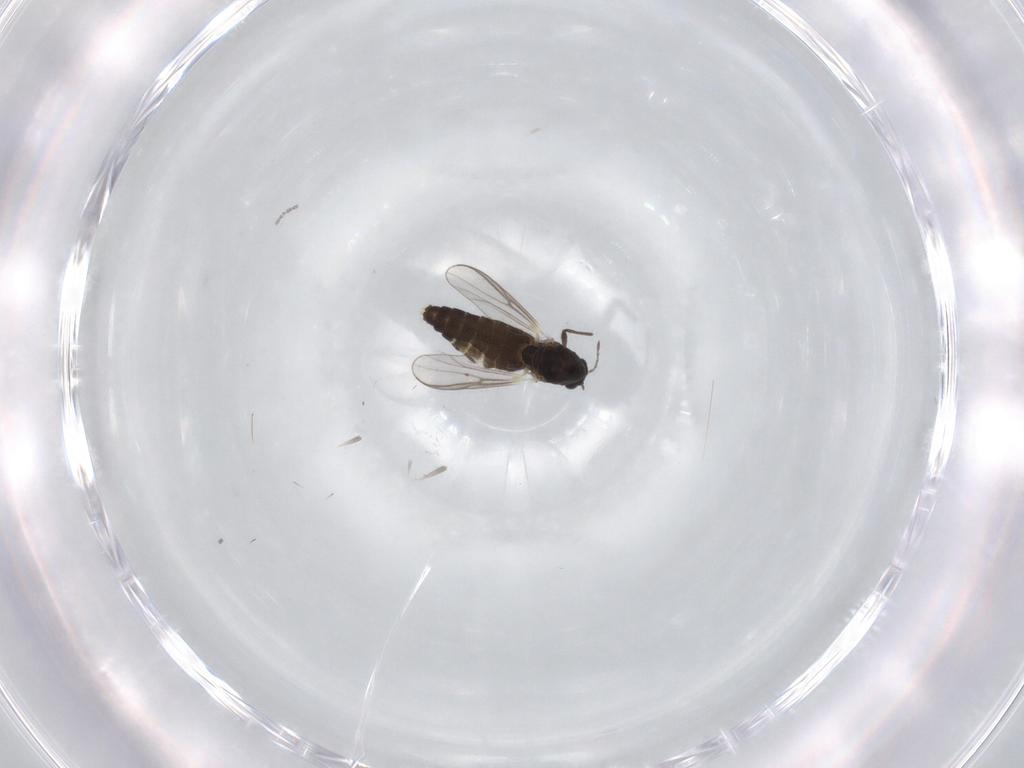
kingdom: Animalia
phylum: Arthropoda
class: Insecta
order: Diptera
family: Chironomidae
